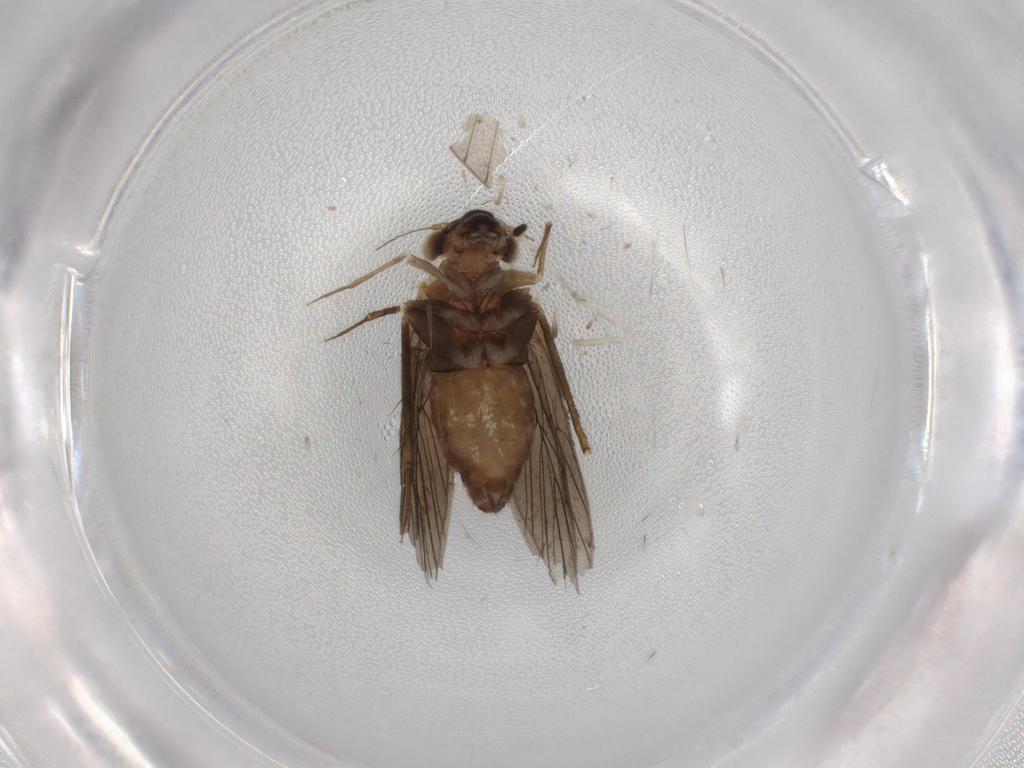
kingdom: Animalia
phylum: Arthropoda
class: Insecta
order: Psocodea
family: Lepidopsocidae
